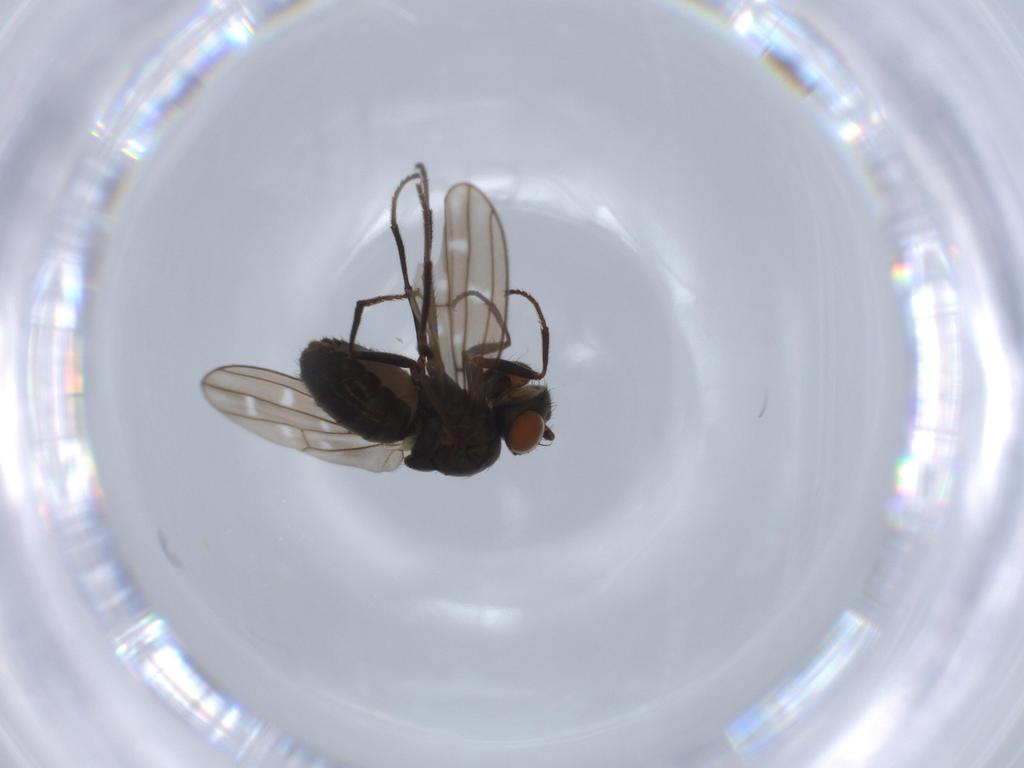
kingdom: Animalia
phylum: Arthropoda
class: Insecta
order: Diptera
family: Ephydridae
